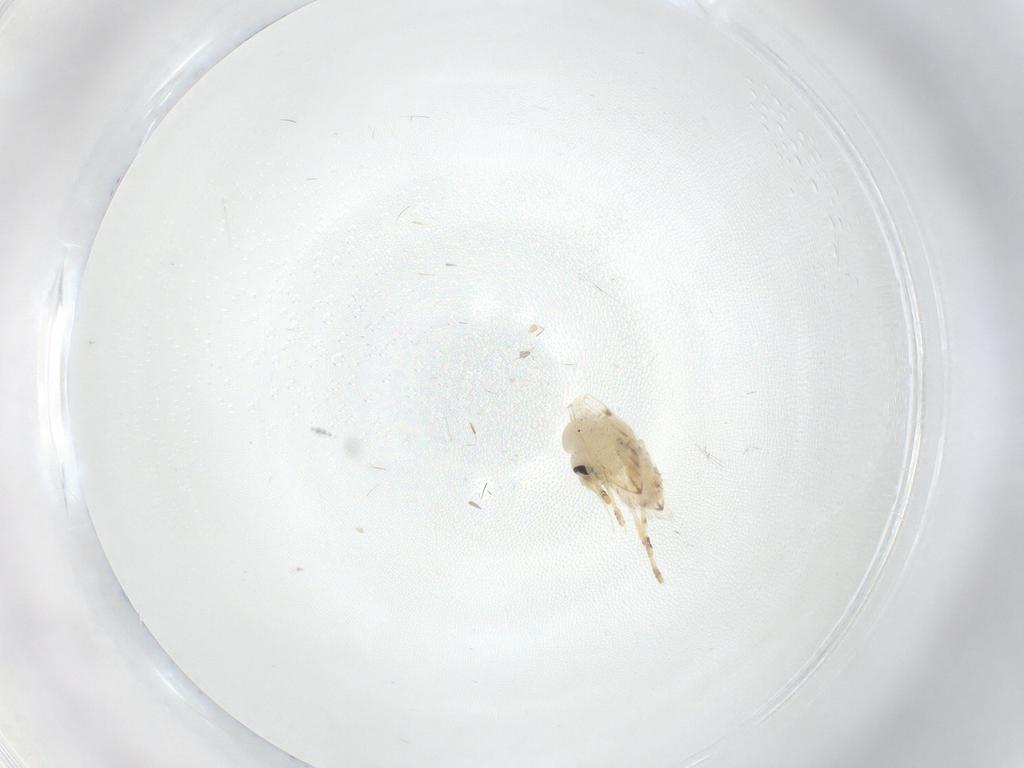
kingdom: Animalia
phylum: Arthropoda
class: Insecta
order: Diptera
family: Psychodidae
